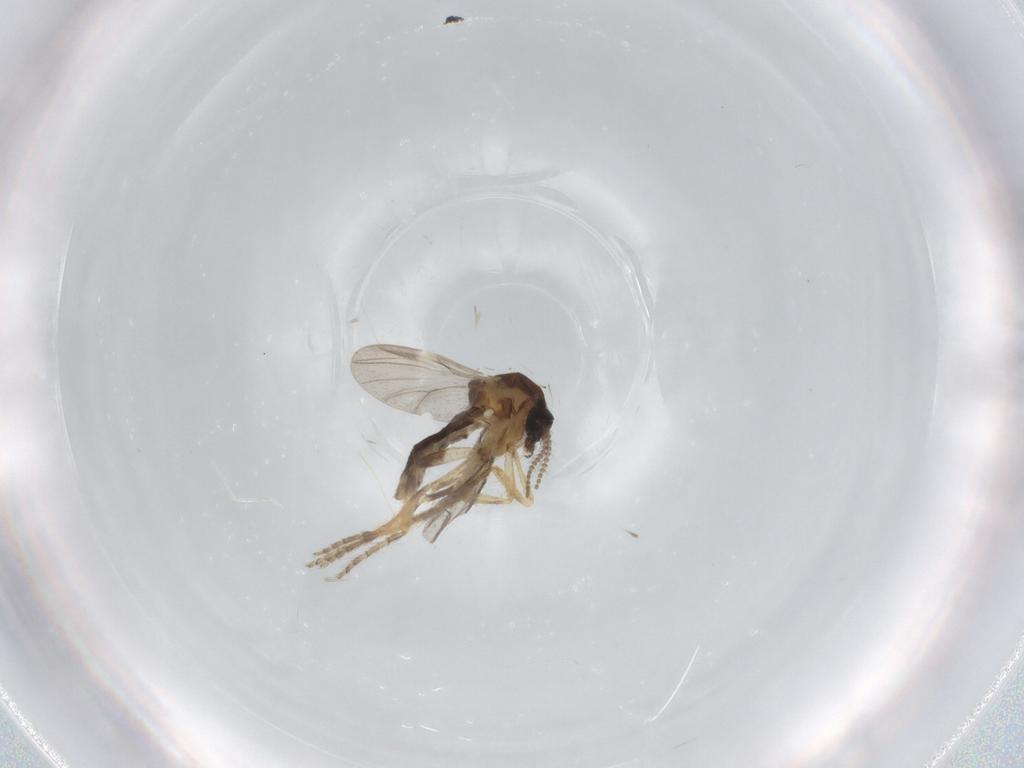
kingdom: Animalia
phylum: Arthropoda
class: Insecta
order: Diptera
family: Ceratopogonidae
